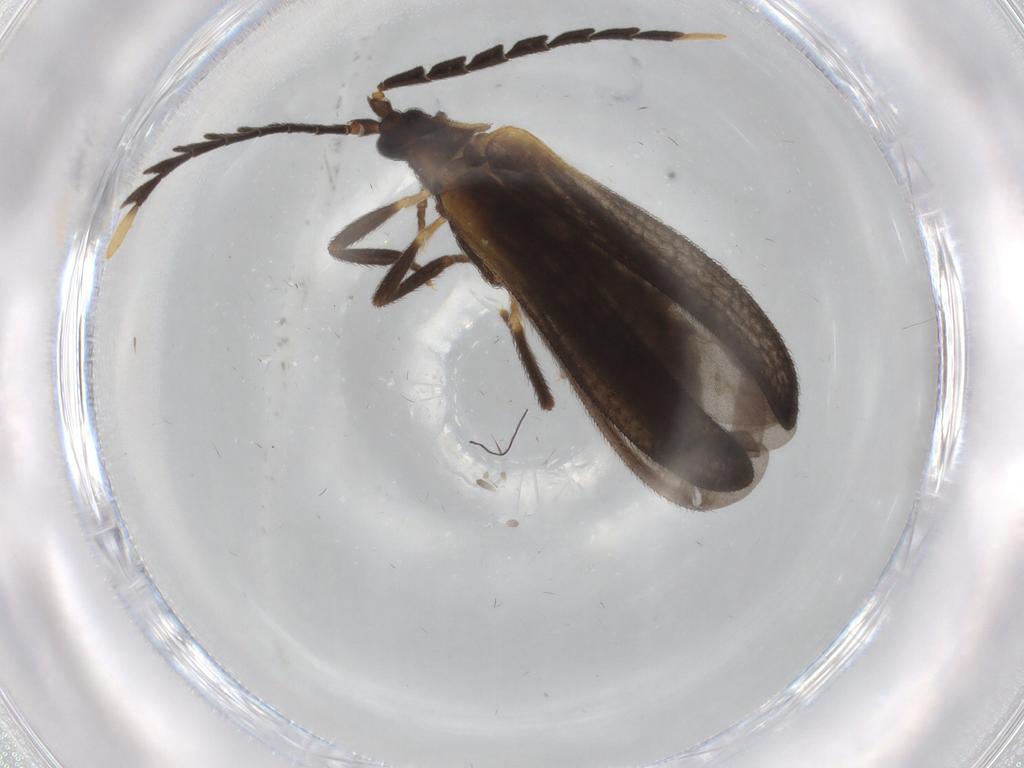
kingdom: Animalia
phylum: Arthropoda
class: Insecta
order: Coleoptera
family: Lycidae
